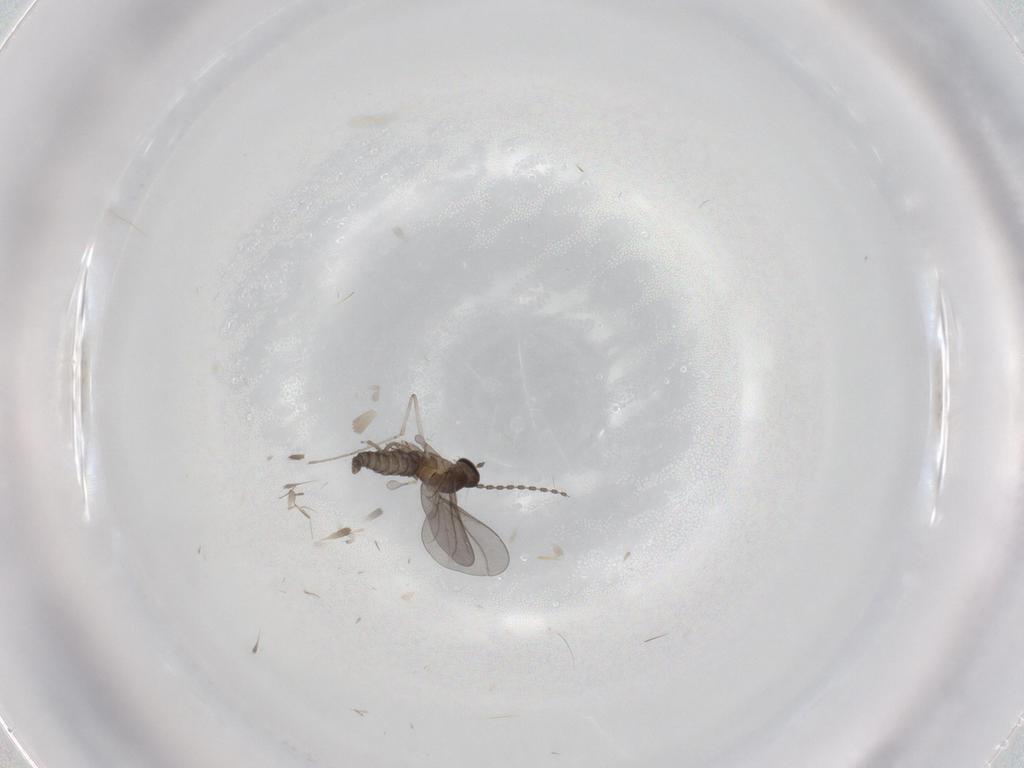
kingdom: Animalia
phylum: Arthropoda
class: Insecta
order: Diptera
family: Cecidomyiidae
